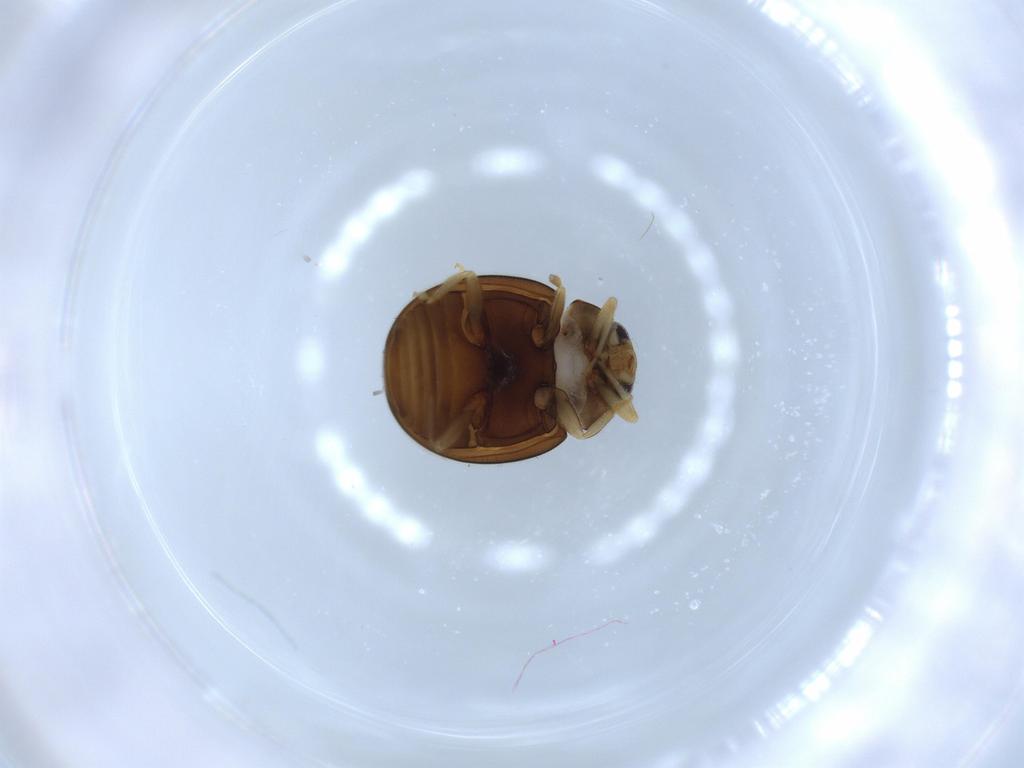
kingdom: Animalia
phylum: Arthropoda
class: Insecta
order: Coleoptera
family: Coccinellidae
